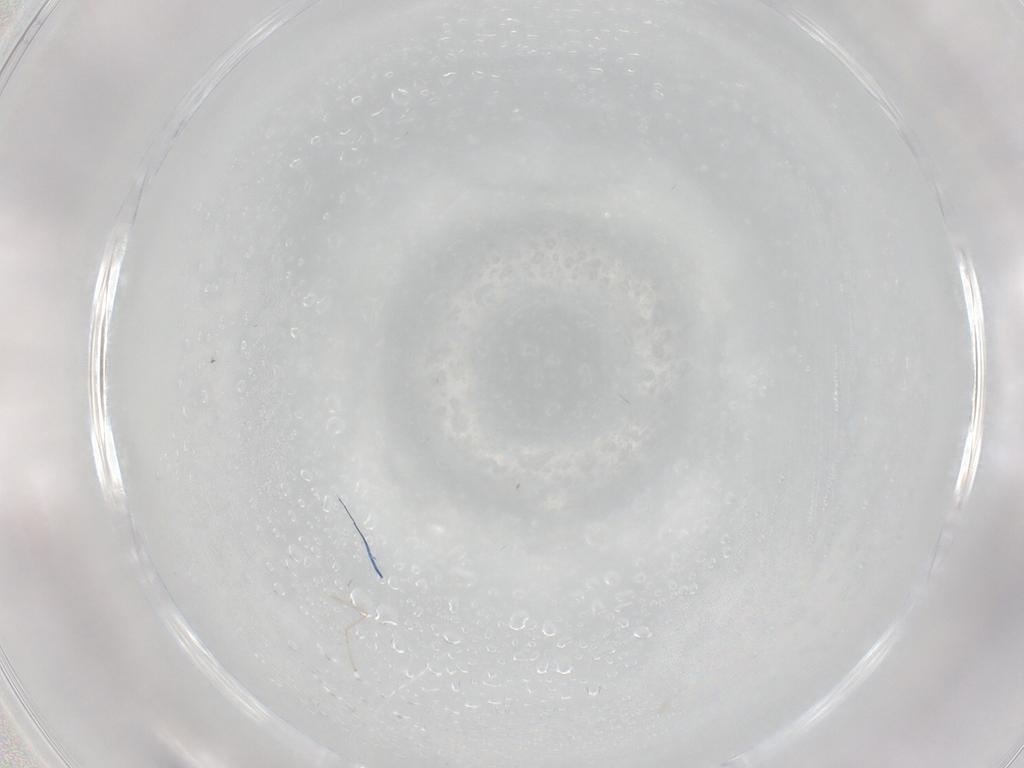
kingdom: Animalia
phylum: Arthropoda
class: Insecta
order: Diptera
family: Cecidomyiidae
